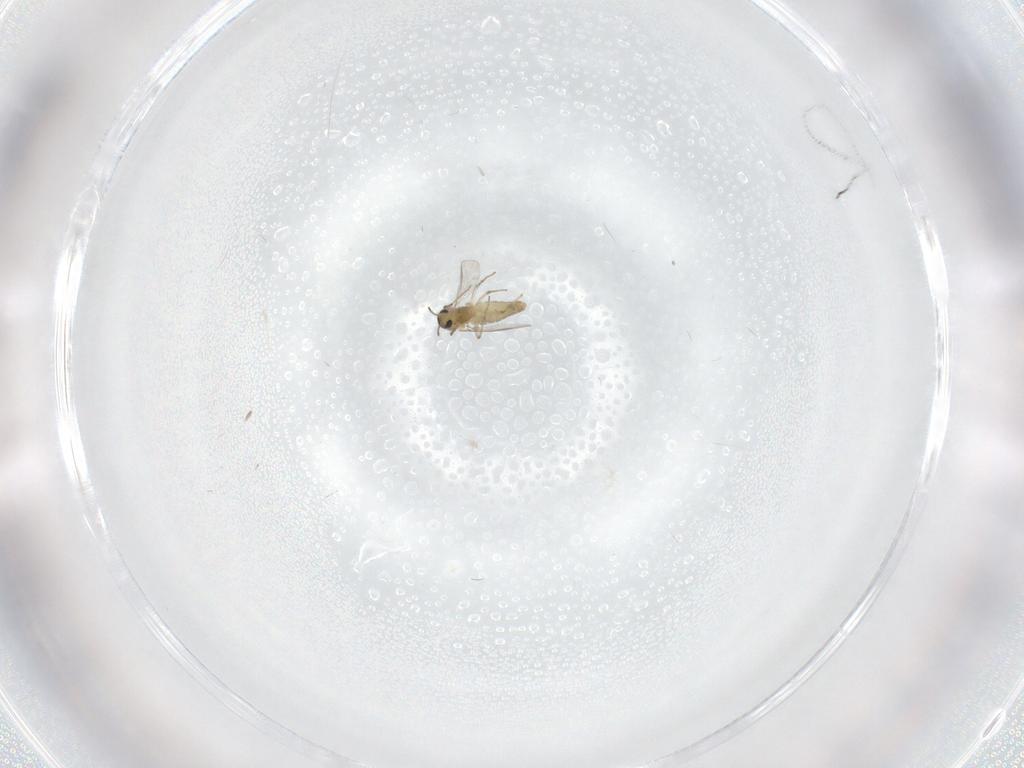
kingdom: Animalia
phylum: Arthropoda
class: Insecta
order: Diptera
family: Chironomidae
